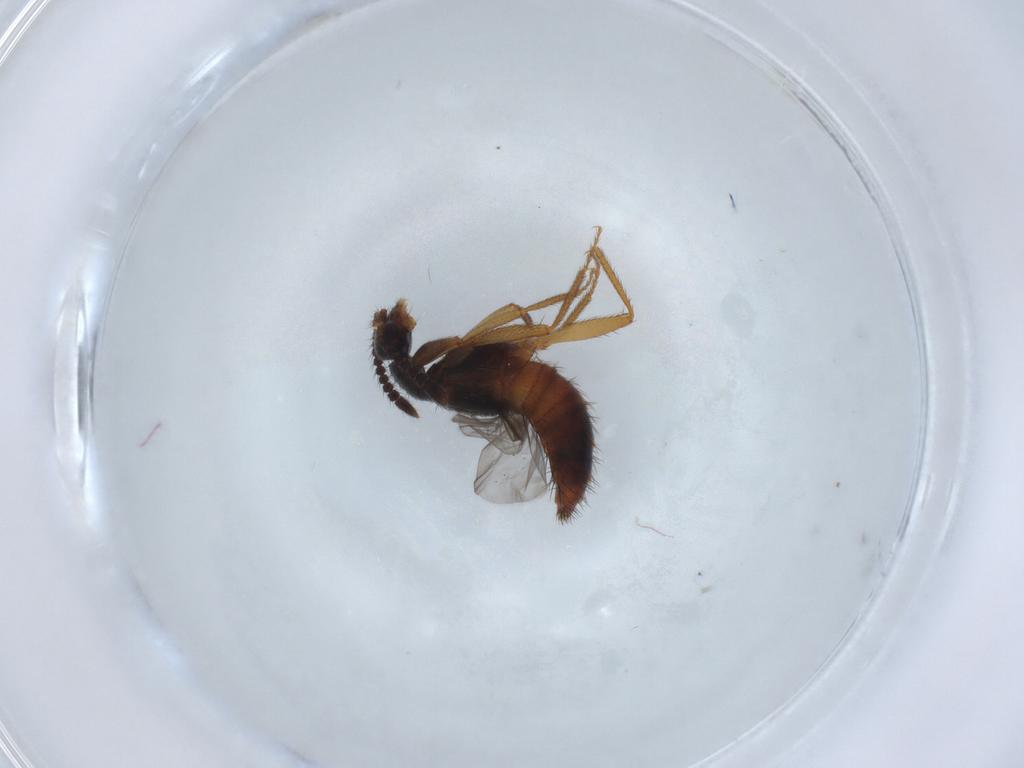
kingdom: Animalia
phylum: Arthropoda
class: Insecta
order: Coleoptera
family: Staphylinidae
